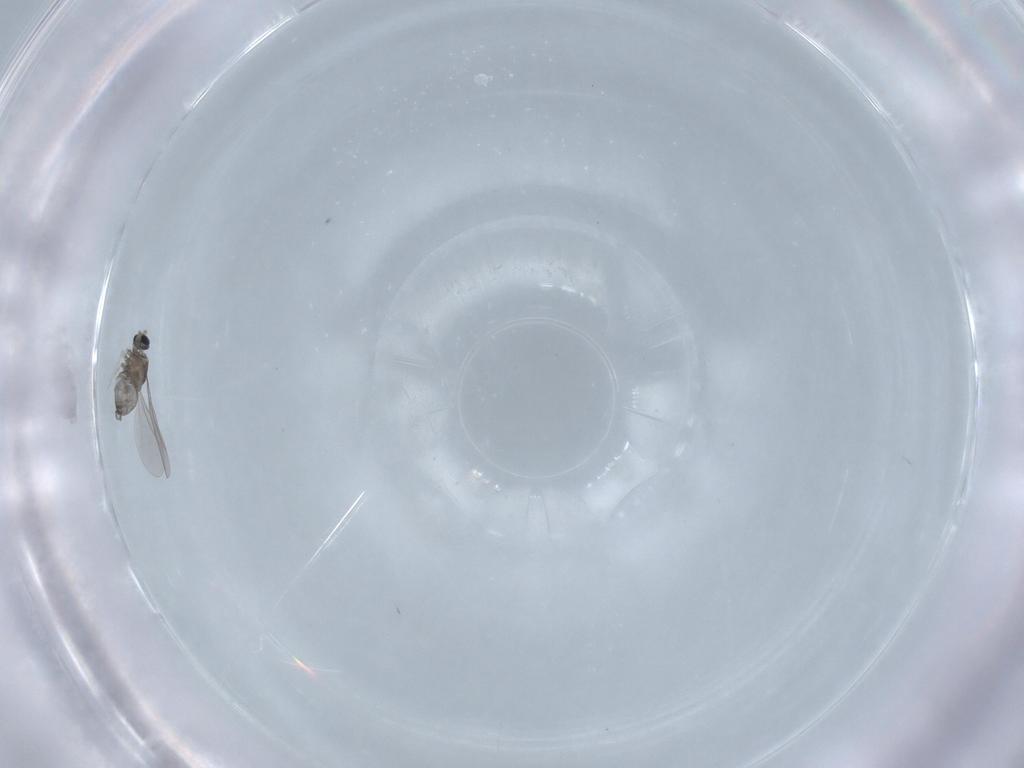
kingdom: Animalia
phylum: Arthropoda
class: Insecta
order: Diptera
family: Cecidomyiidae
